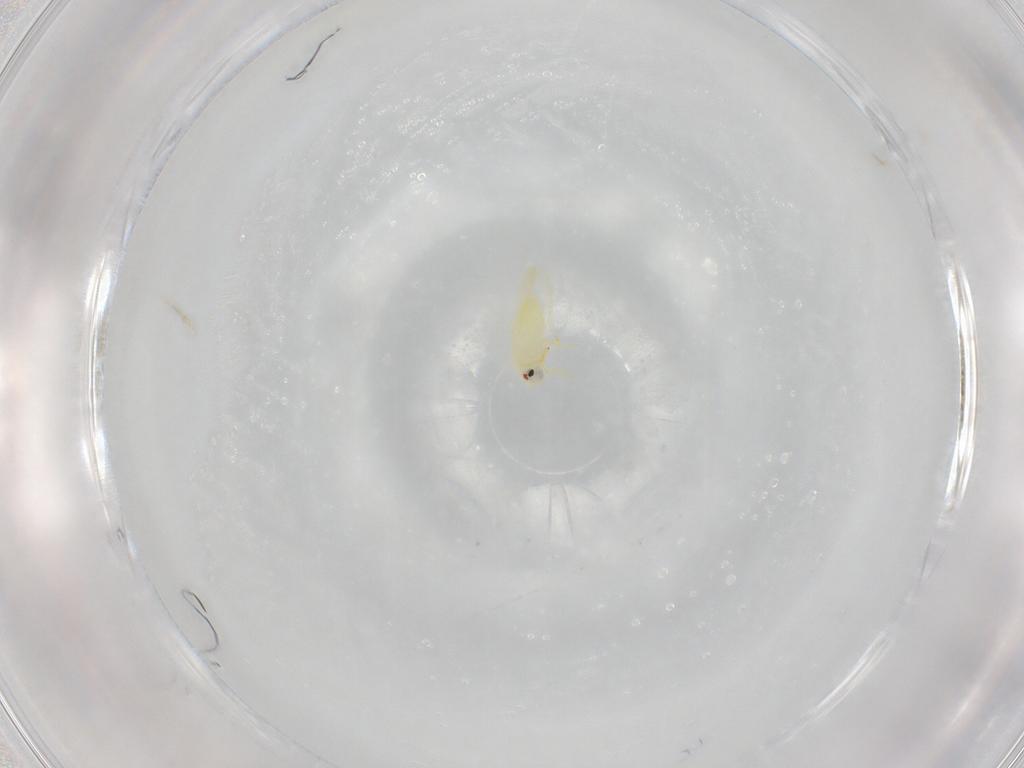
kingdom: Animalia
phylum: Arthropoda
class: Insecta
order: Hemiptera
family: Aleyrodidae
